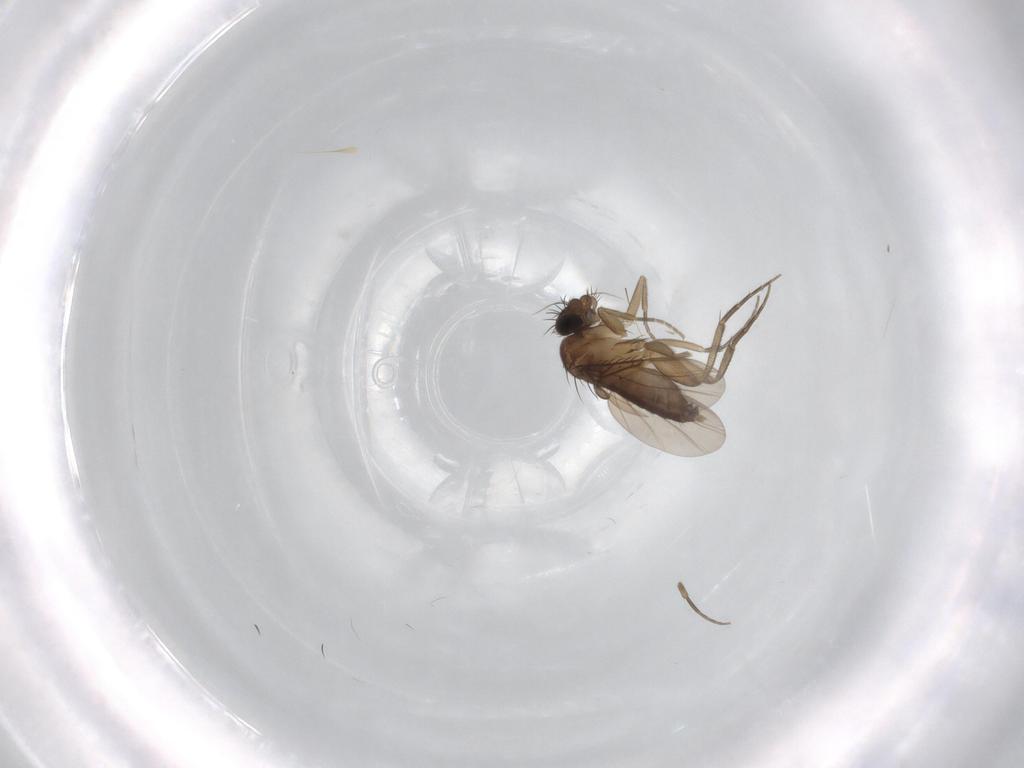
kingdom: Animalia
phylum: Arthropoda
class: Insecta
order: Diptera
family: Phoridae
